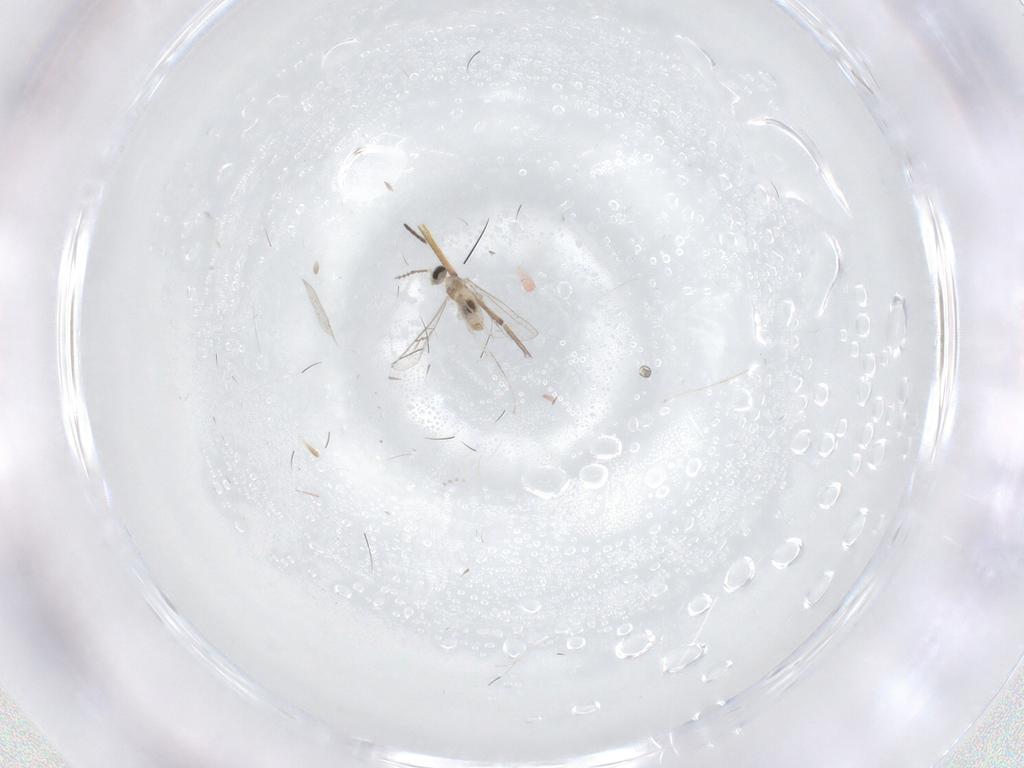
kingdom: Animalia
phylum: Arthropoda
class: Insecta
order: Diptera
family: Cecidomyiidae
